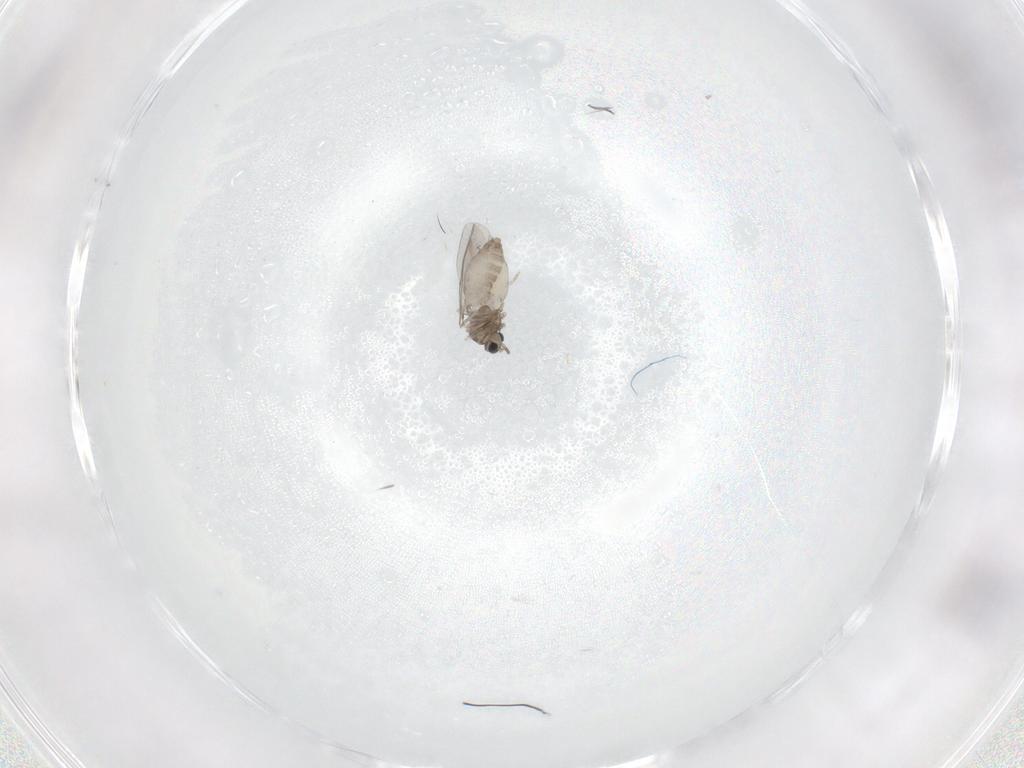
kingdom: Animalia
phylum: Arthropoda
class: Insecta
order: Diptera
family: Cecidomyiidae
